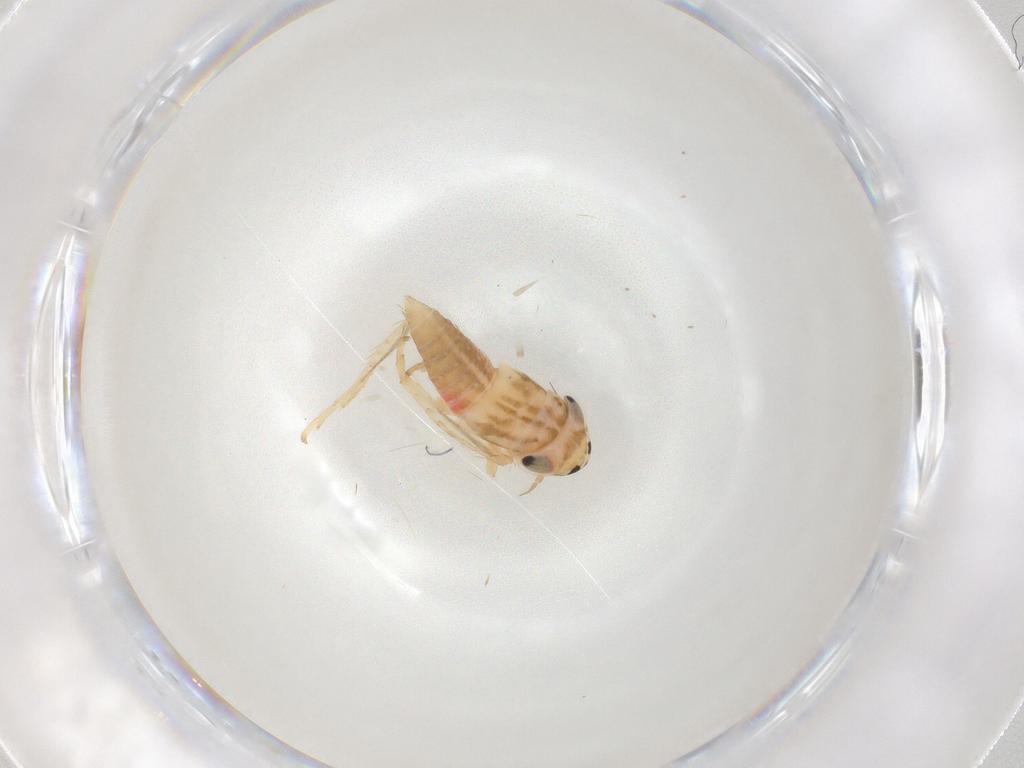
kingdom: Animalia
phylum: Arthropoda
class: Insecta
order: Hemiptera
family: Cicadellidae
